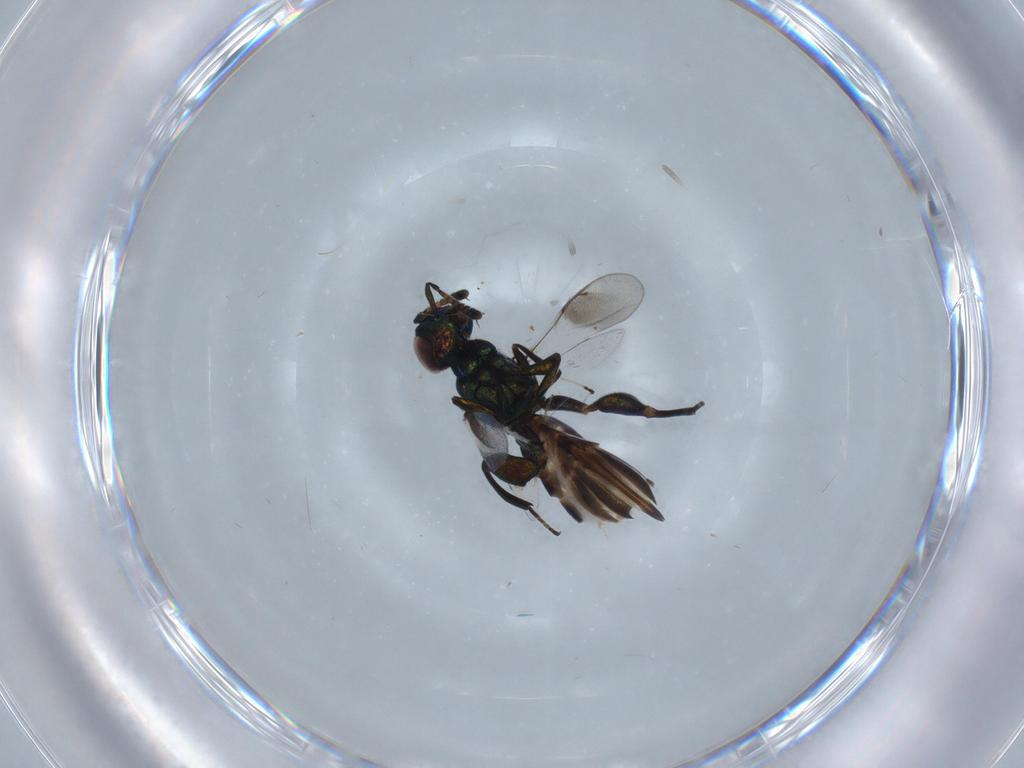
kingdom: Animalia
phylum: Arthropoda
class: Insecta
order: Hymenoptera
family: Pteromalidae
